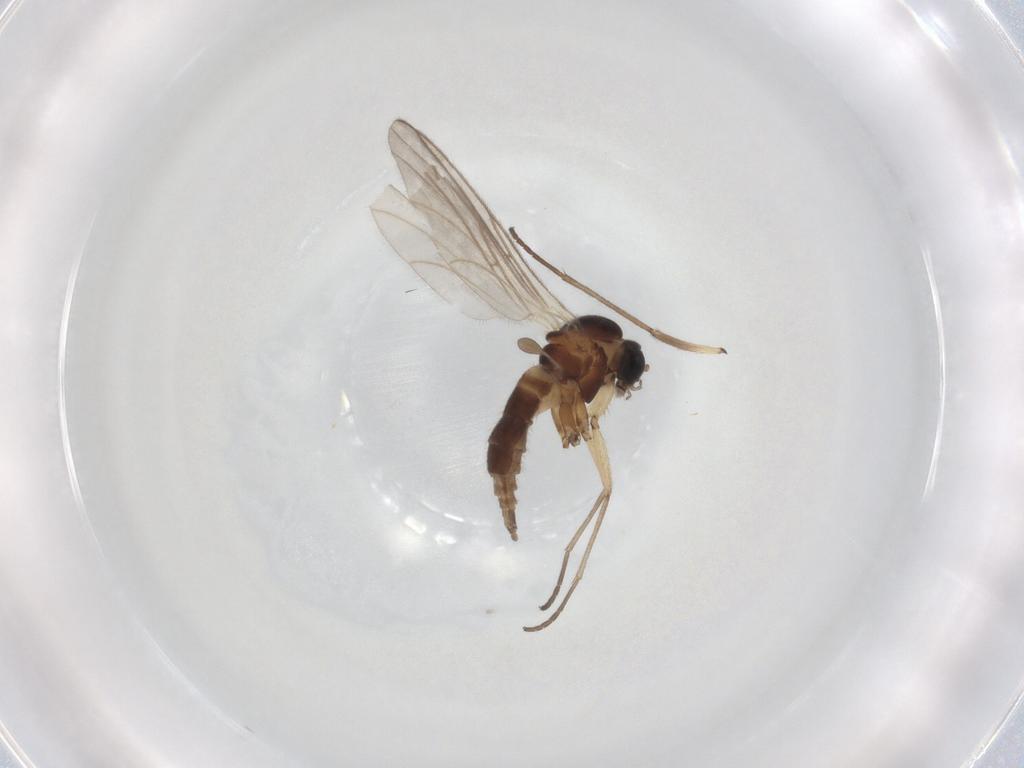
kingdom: Animalia
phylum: Arthropoda
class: Insecta
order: Diptera
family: Sciaridae
